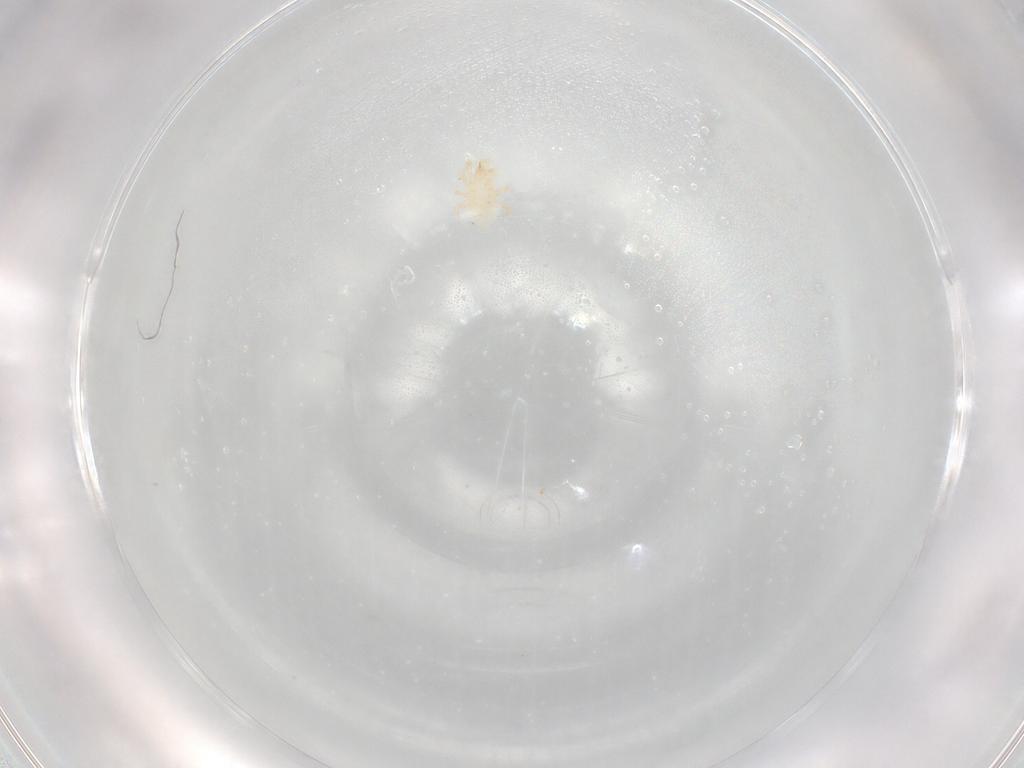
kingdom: Animalia
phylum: Arthropoda
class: Arachnida
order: Mesostigmata
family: Melicharidae
